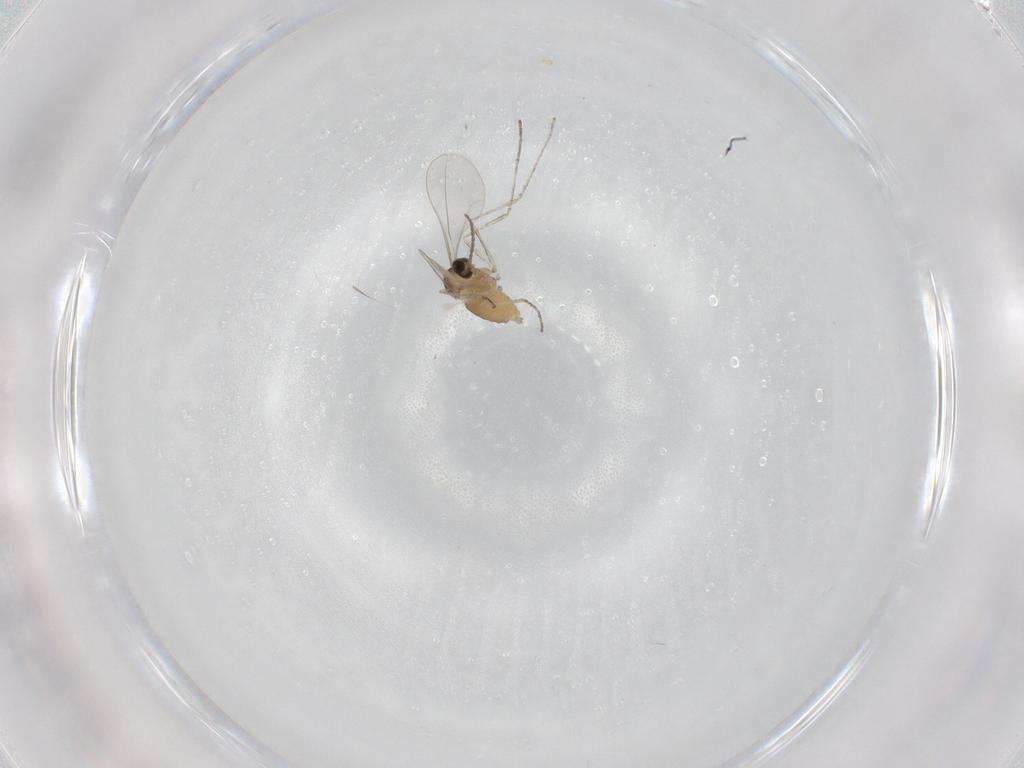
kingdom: Animalia
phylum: Arthropoda
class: Insecta
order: Diptera
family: Cecidomyiidae
